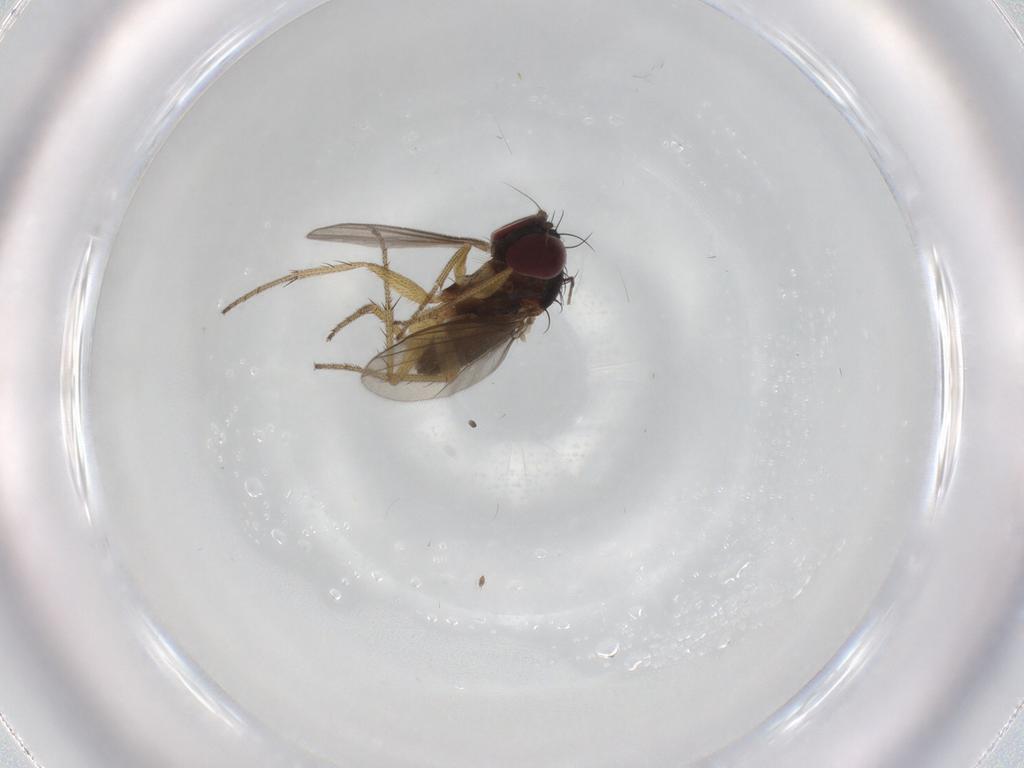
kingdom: Animalia
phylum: Arthropoda
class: Insecta
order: Diptera
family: Dolichopodidae
